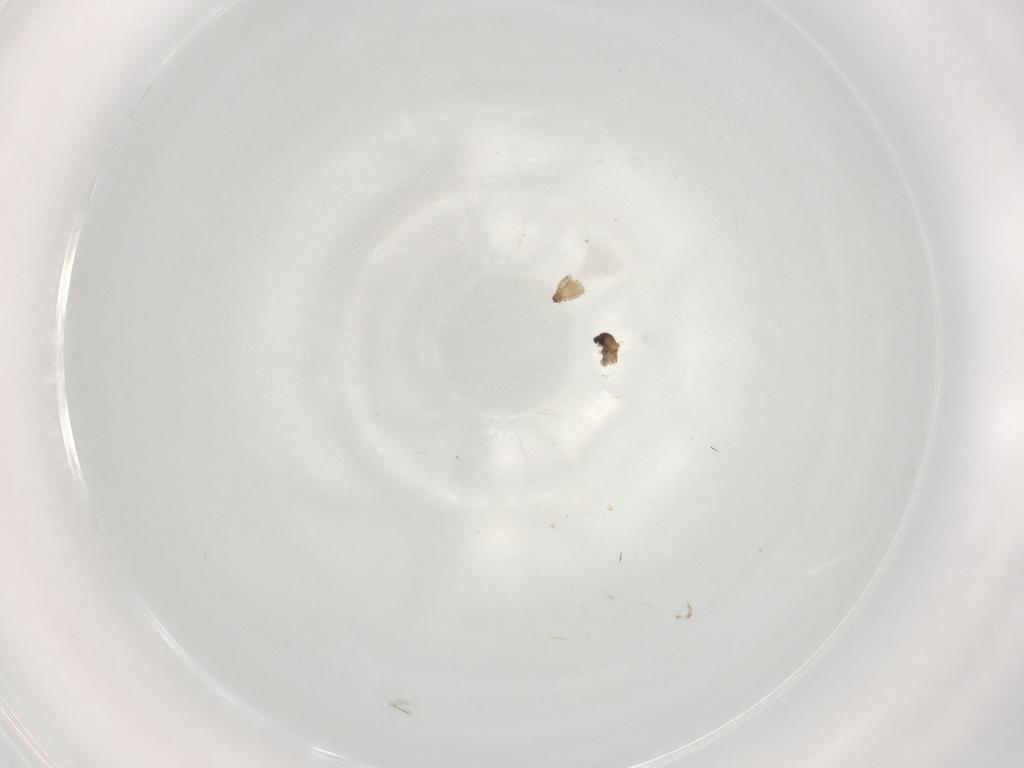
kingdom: Animalia
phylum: Arthropoda
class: Insecta
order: Diptera
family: Cecidomyiidae
